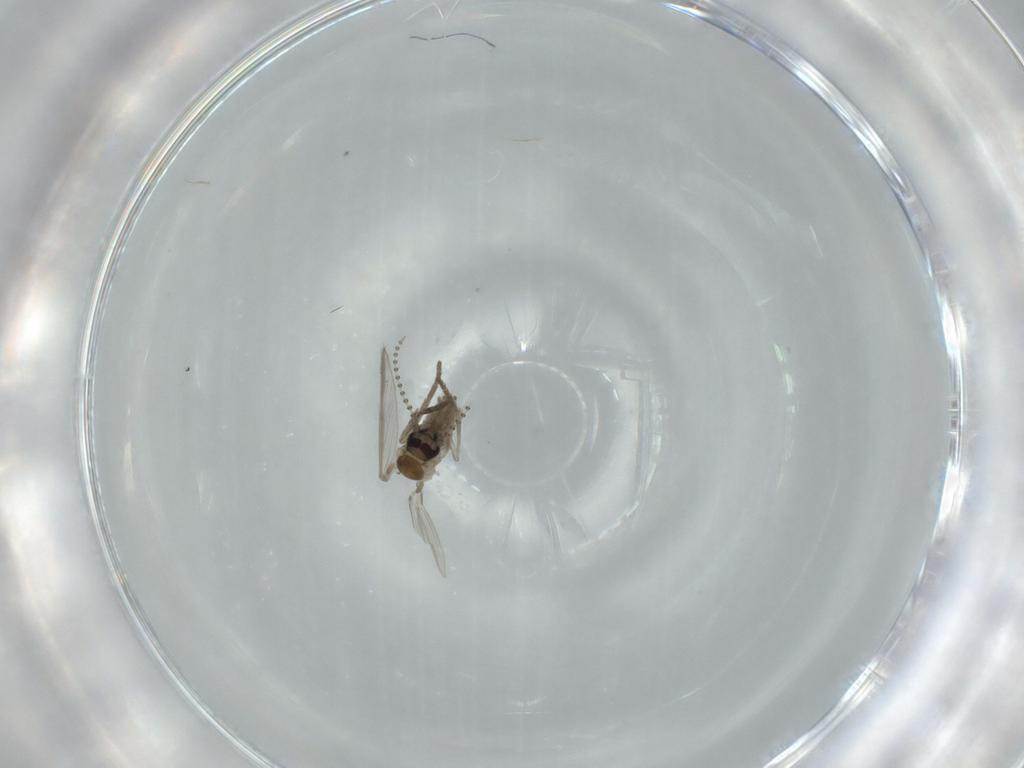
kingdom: Animalia
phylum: Arthropoda
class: Insecta
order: Diptera
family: Psychodidae
